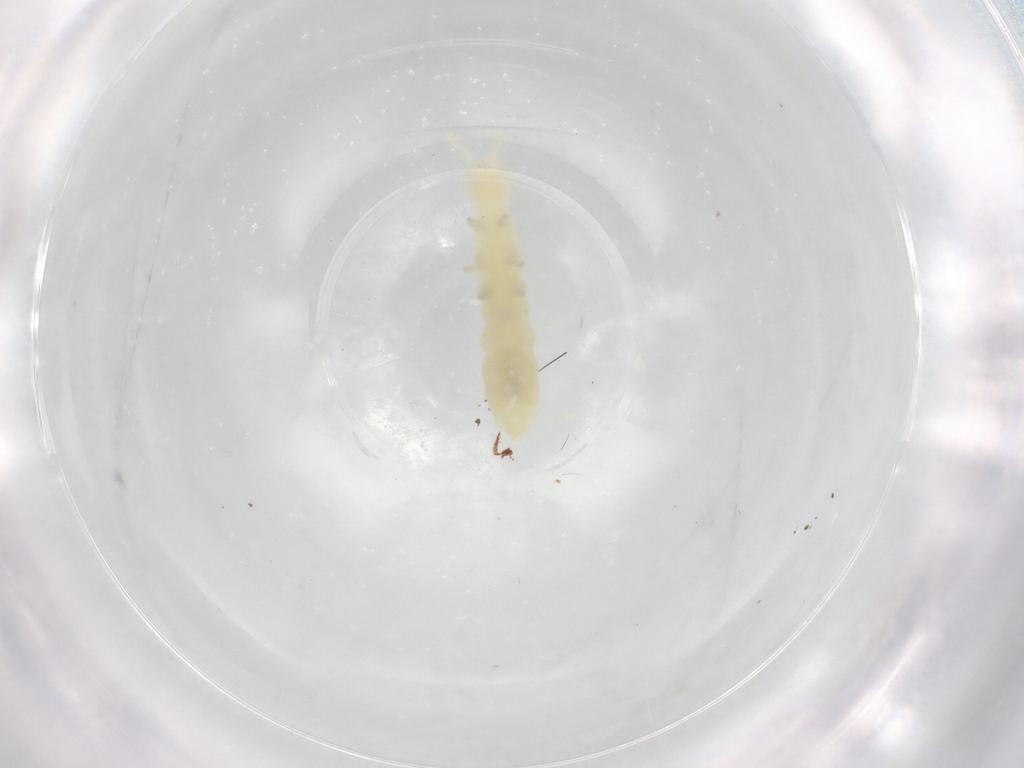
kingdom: Animalia
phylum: Arthropoda
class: Collembola
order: Poduromorpha
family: Onychiuridae
